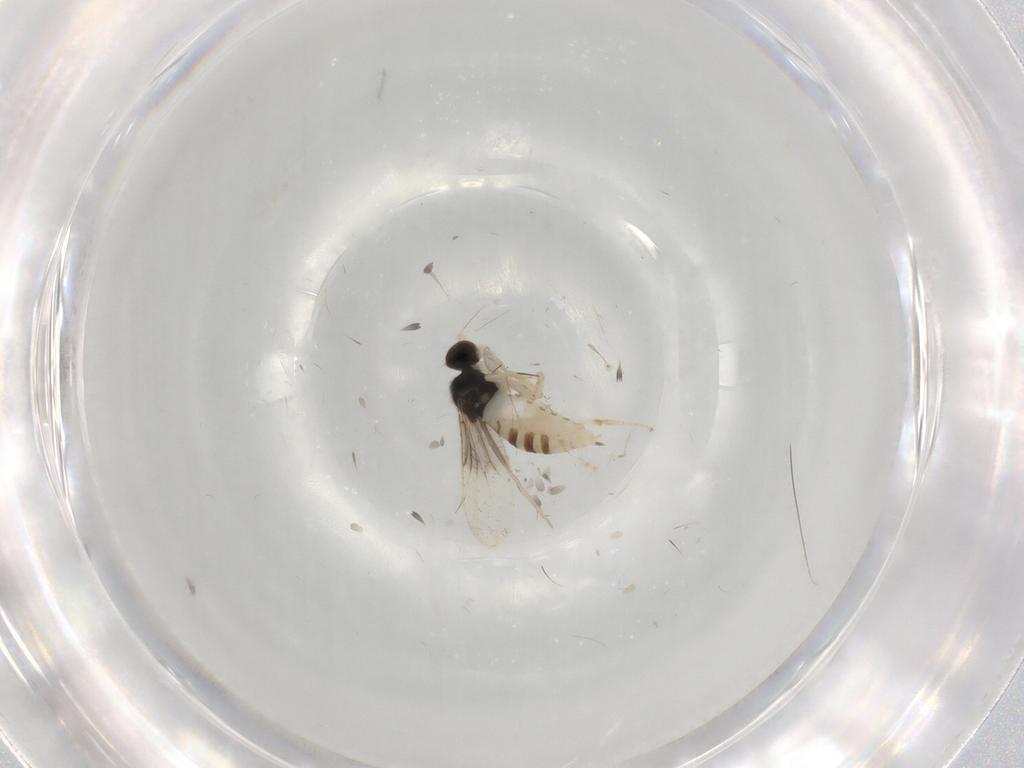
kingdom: Animalia
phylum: Arthropoda
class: Insecta
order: Diptera
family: Hybotidae
